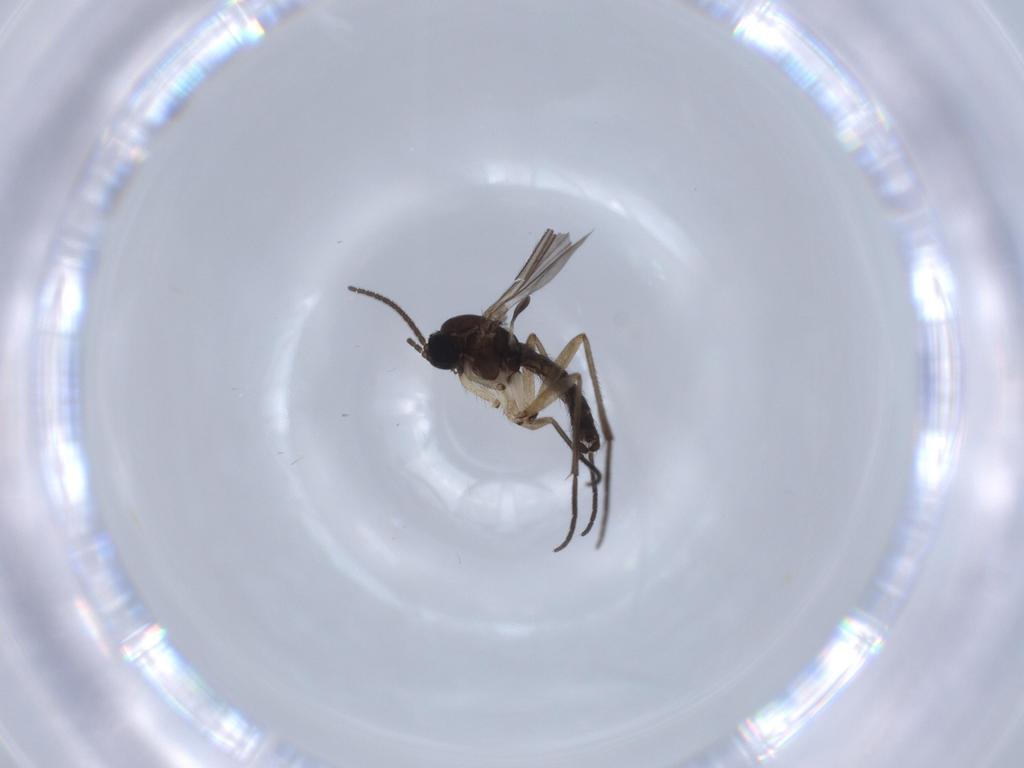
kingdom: Animalia
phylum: Arthropoda
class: Insecta
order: Diptera
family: Sciaridae
